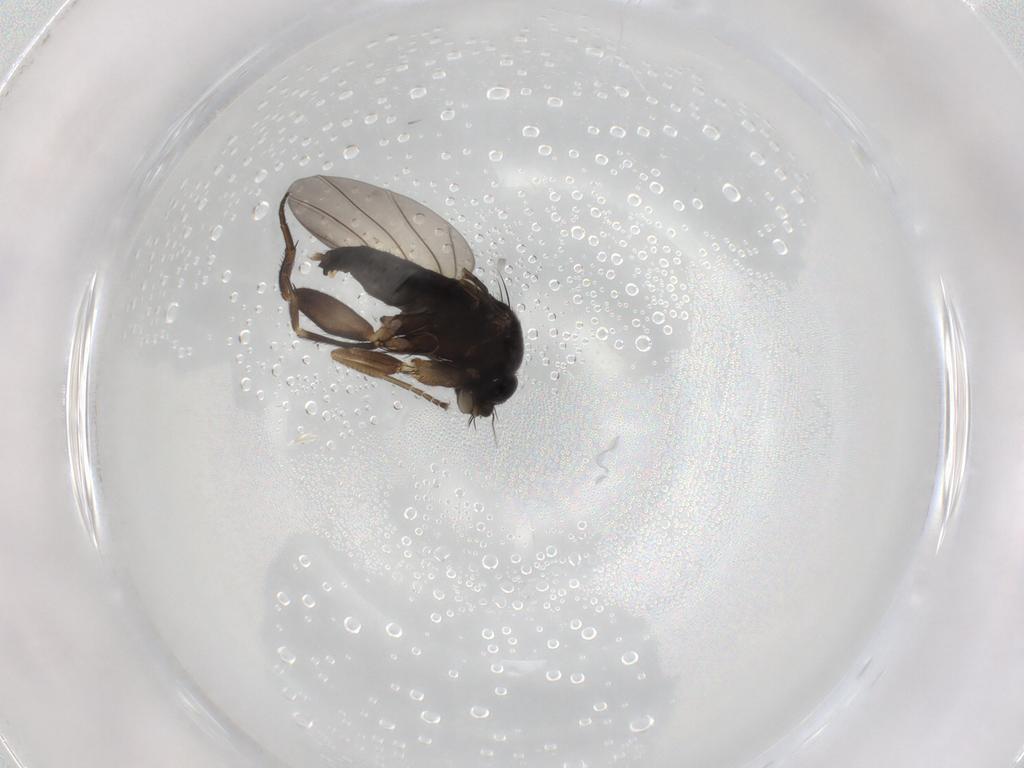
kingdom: Animalia
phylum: Arthropoda
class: Insecta
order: Diptera
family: Phoridae
